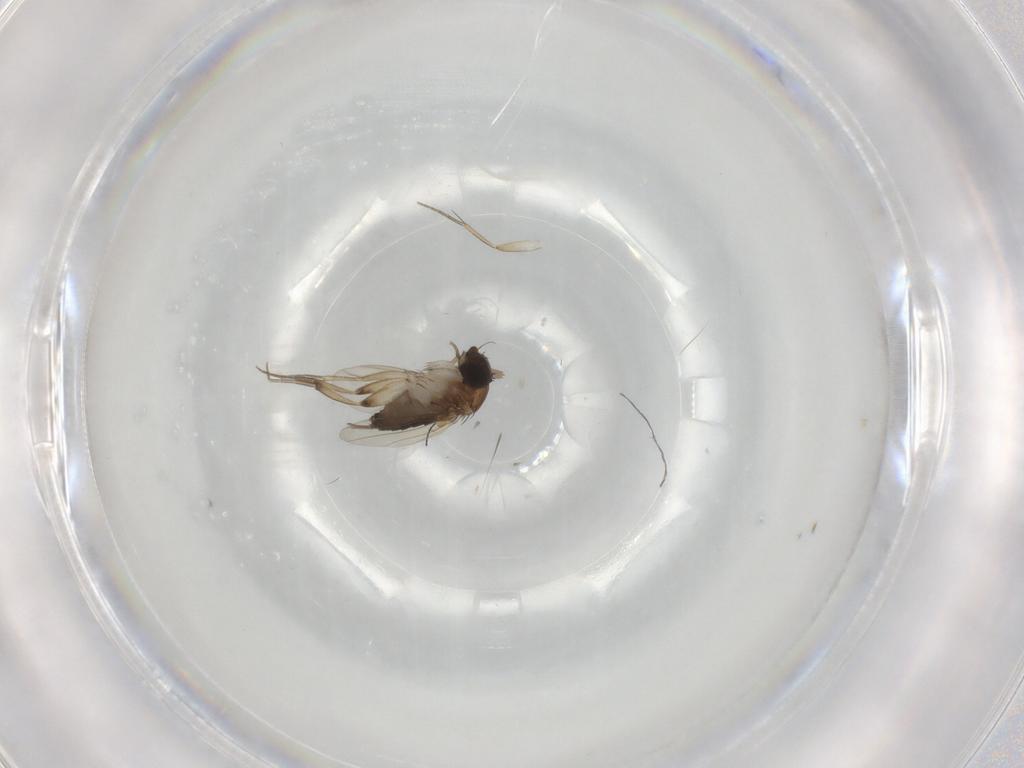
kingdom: Animalia
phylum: Arthropoda
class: Insecta
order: Diptera
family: Phoridae
